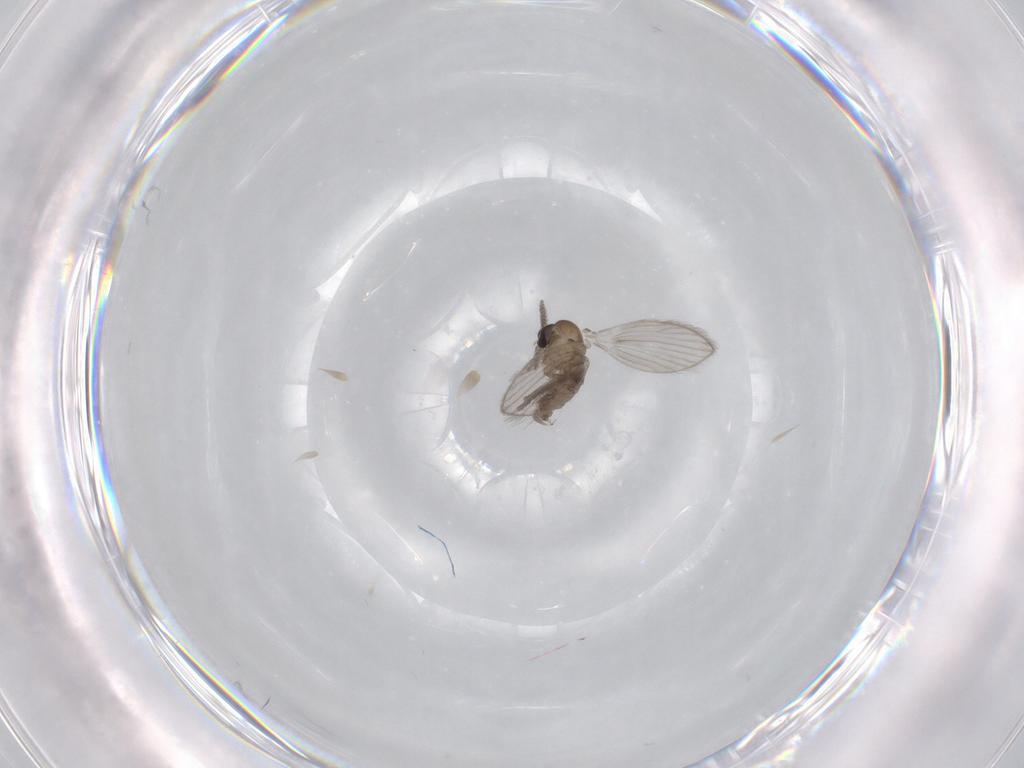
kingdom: Animalia
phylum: Arthropoda
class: Insecta
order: Diptera
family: Psychodidae
